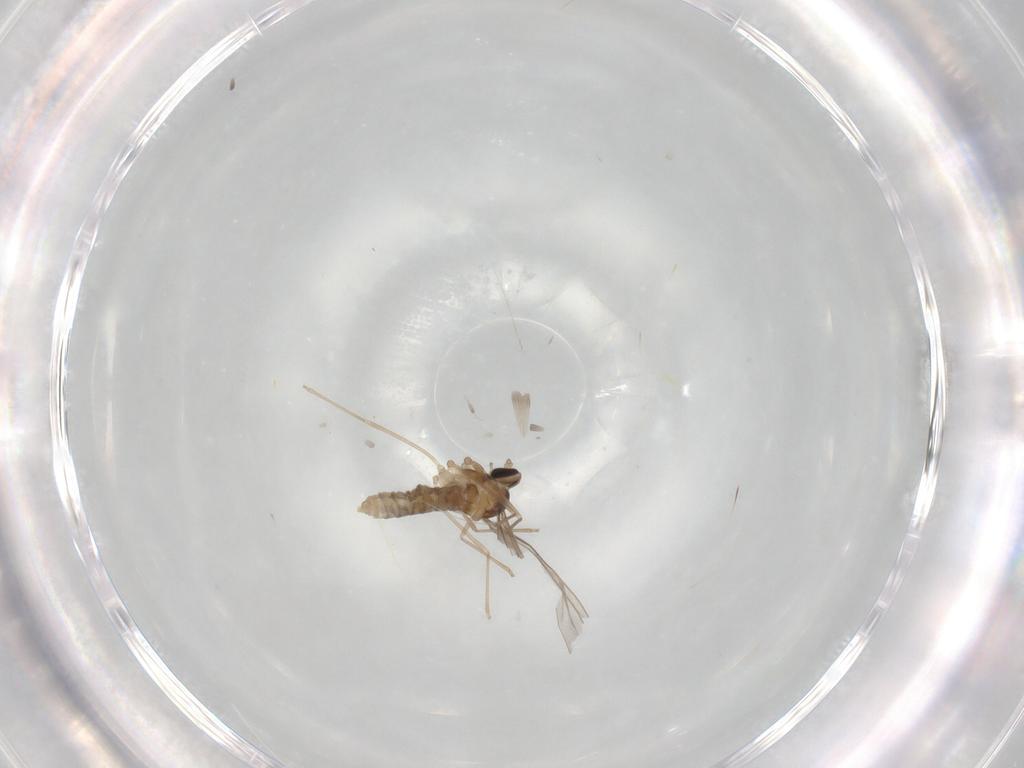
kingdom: Animalia
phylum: Arthropoda
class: Insecta
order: Diptera
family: Cecidomyiidae
